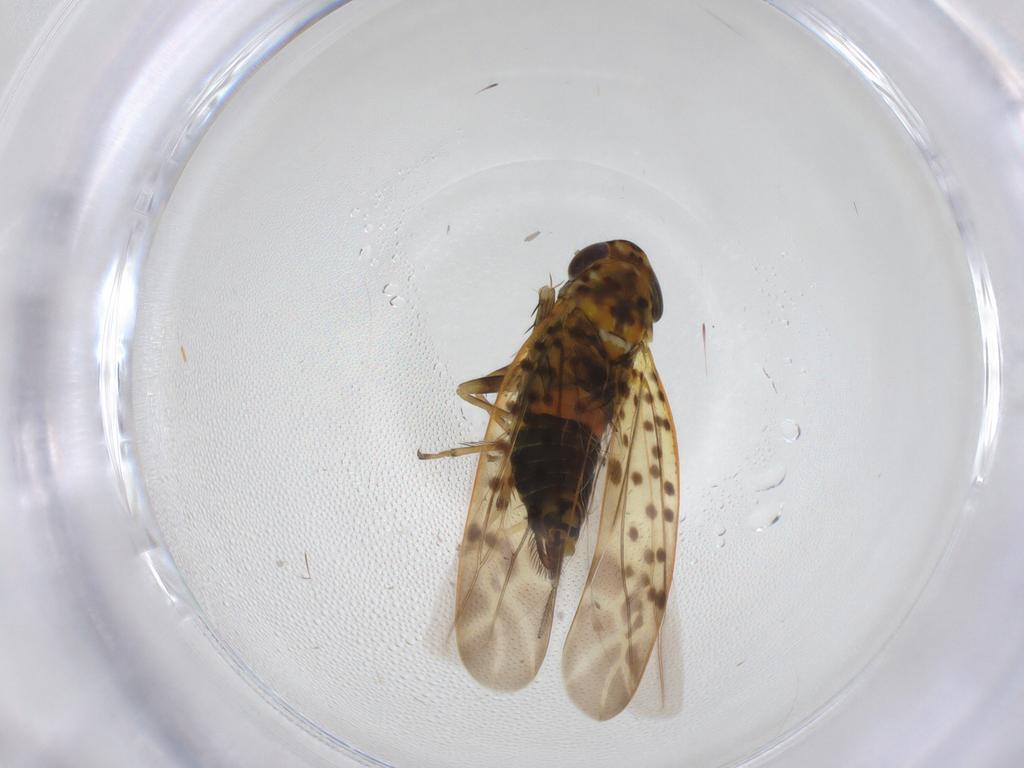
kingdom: Animalia
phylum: Arthropoda
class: Insecta
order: Hemiptera
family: Cicadellidae
